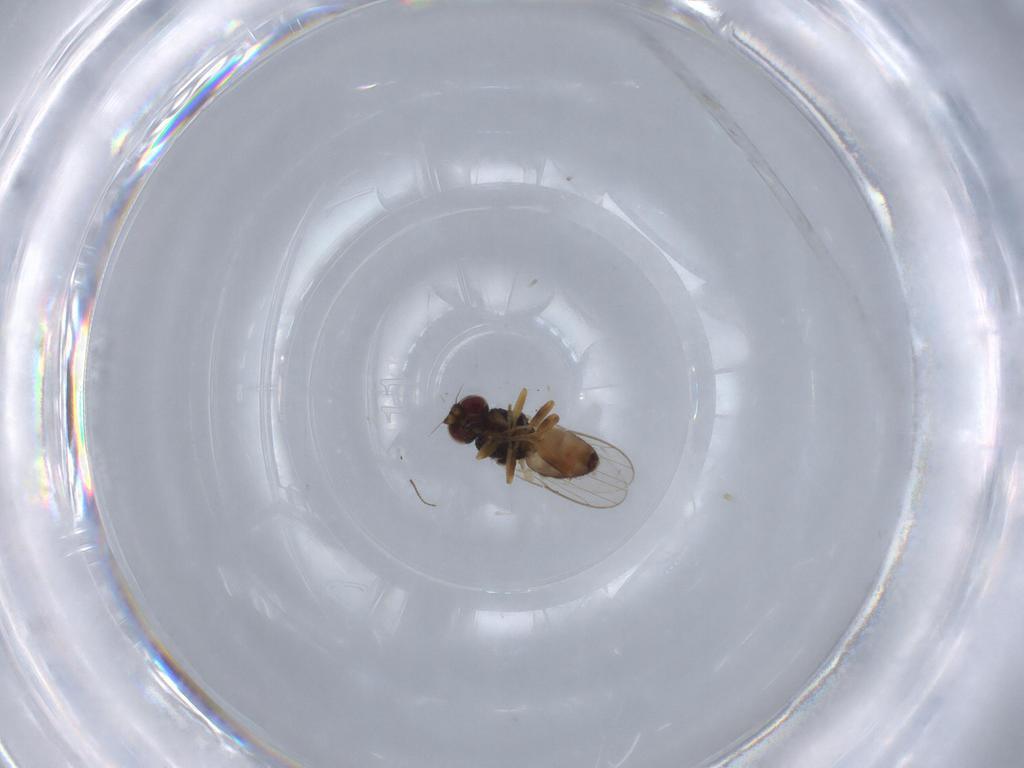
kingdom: Animalia
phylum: Arthropoda
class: Insecta
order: Diptera
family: Chloropidae
